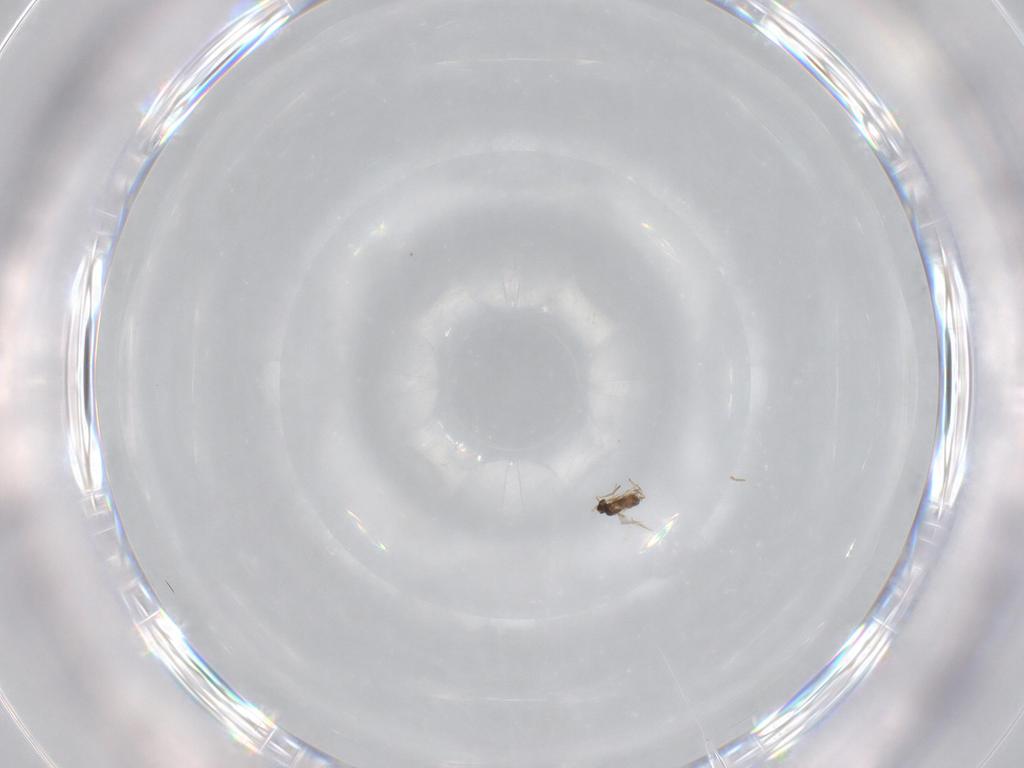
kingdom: Animalia
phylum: Arthropoda
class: Insecta
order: Hymenoptera
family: Mymaridae
